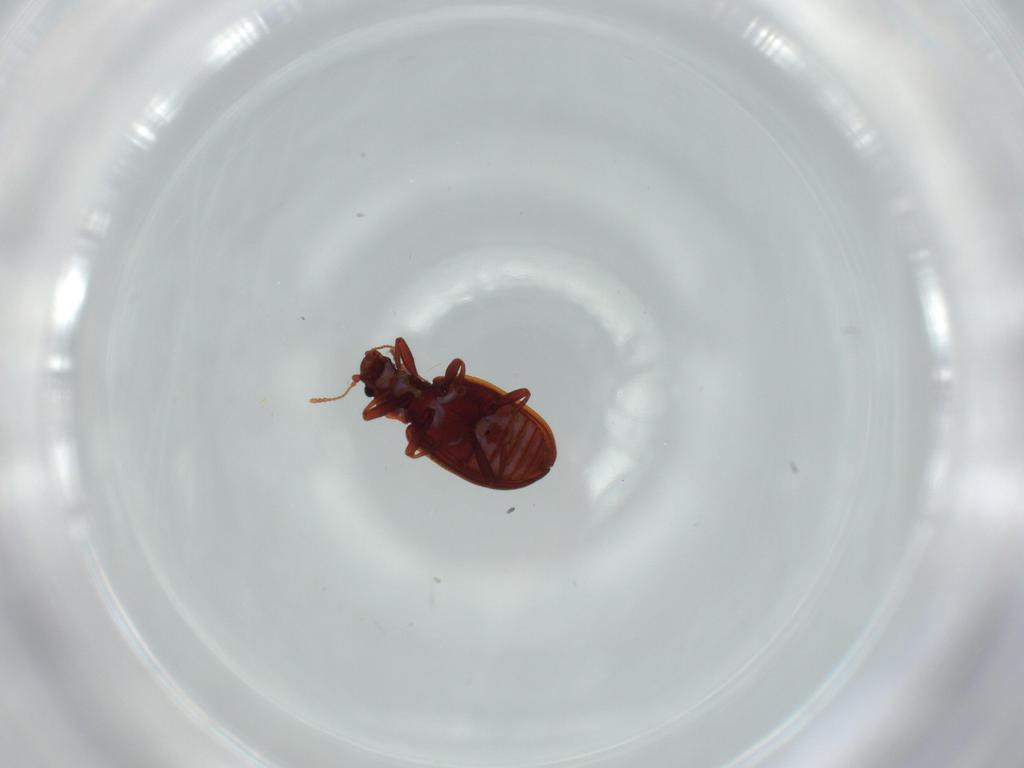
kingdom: Animalia
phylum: Arthropoda
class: Insecta
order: Coleoptera
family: Latridiidae
